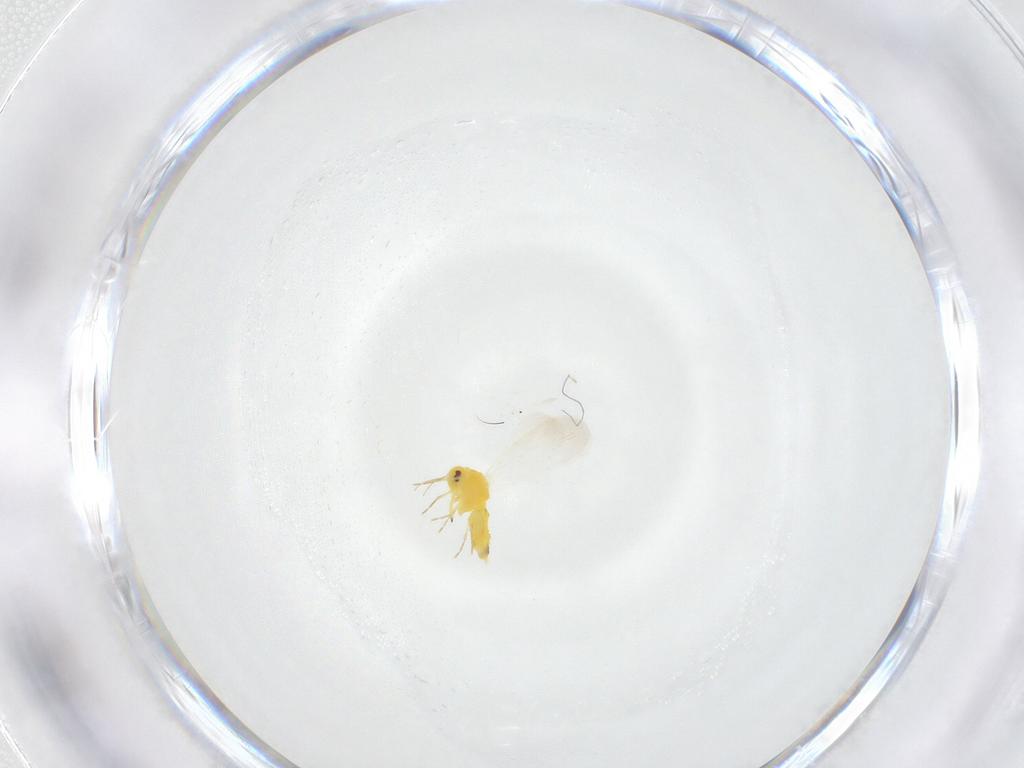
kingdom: Animalia
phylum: Arthropoda
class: Insecta
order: Hemiptera
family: Aleyrodidae
